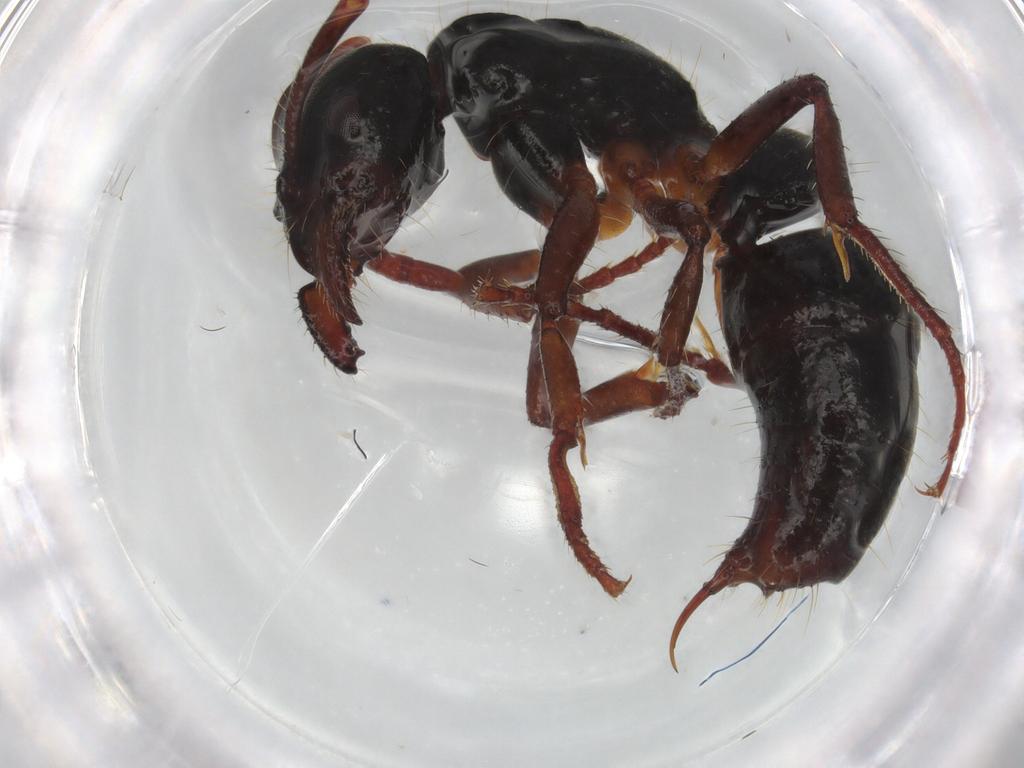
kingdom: Animalia
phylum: Arthropoda
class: Insecta
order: Hymenoptera
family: Formicidae
